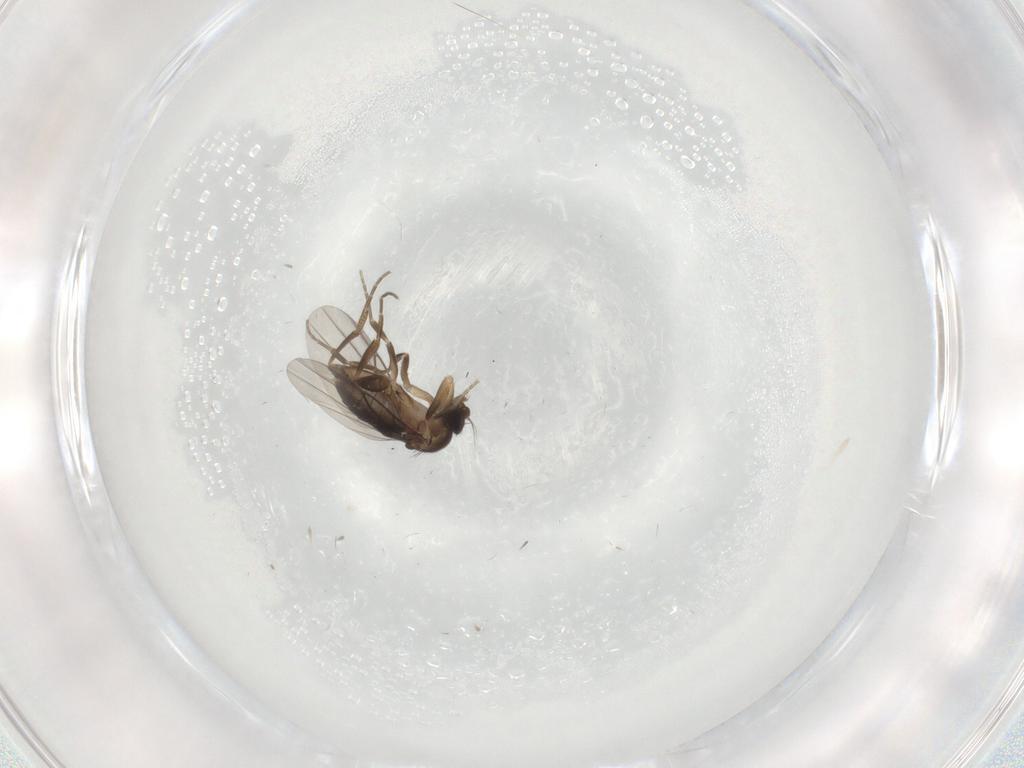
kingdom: Animalia
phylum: Arthropoda
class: Insecta
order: Diptera
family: Phoridae
